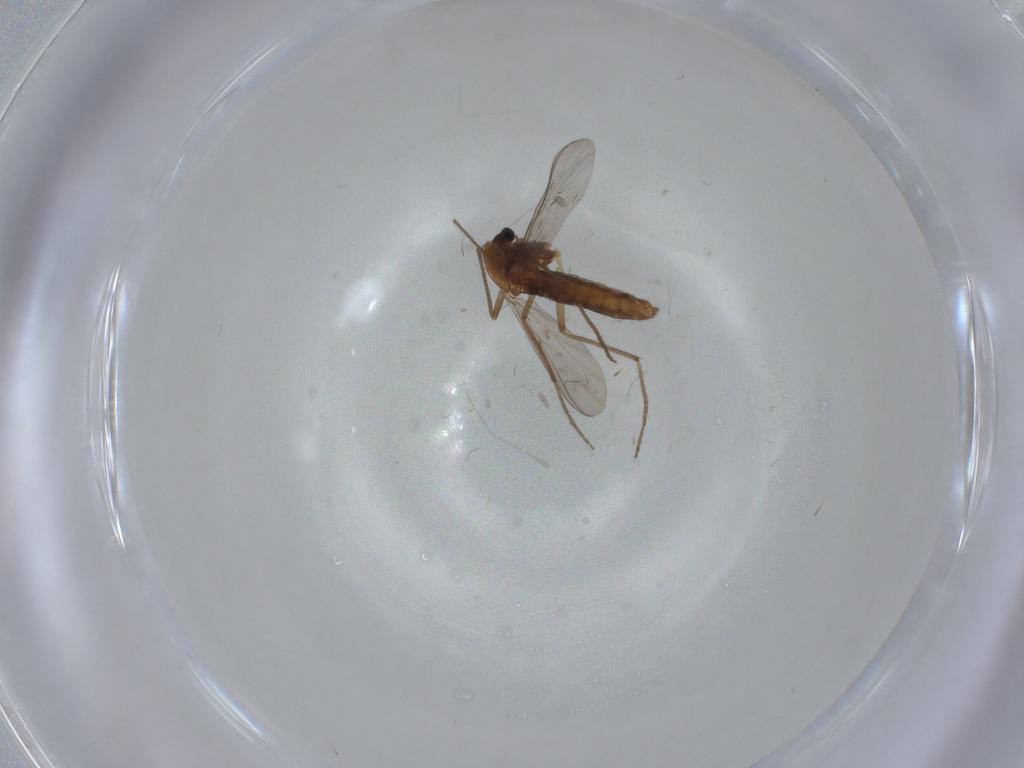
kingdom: Animalia
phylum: Arthropoda
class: Insecta
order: Diptera
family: Chironomidae
